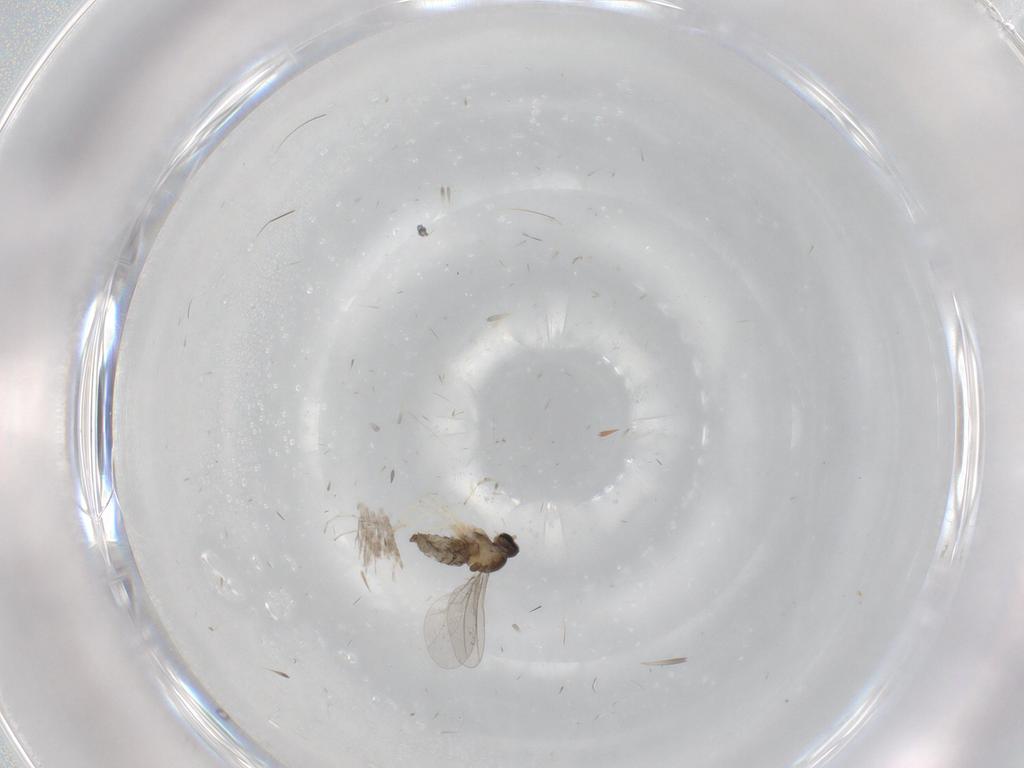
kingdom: Animalia
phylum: Arthropoda
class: Insecta
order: Diptera
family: Cecidomyiidae
